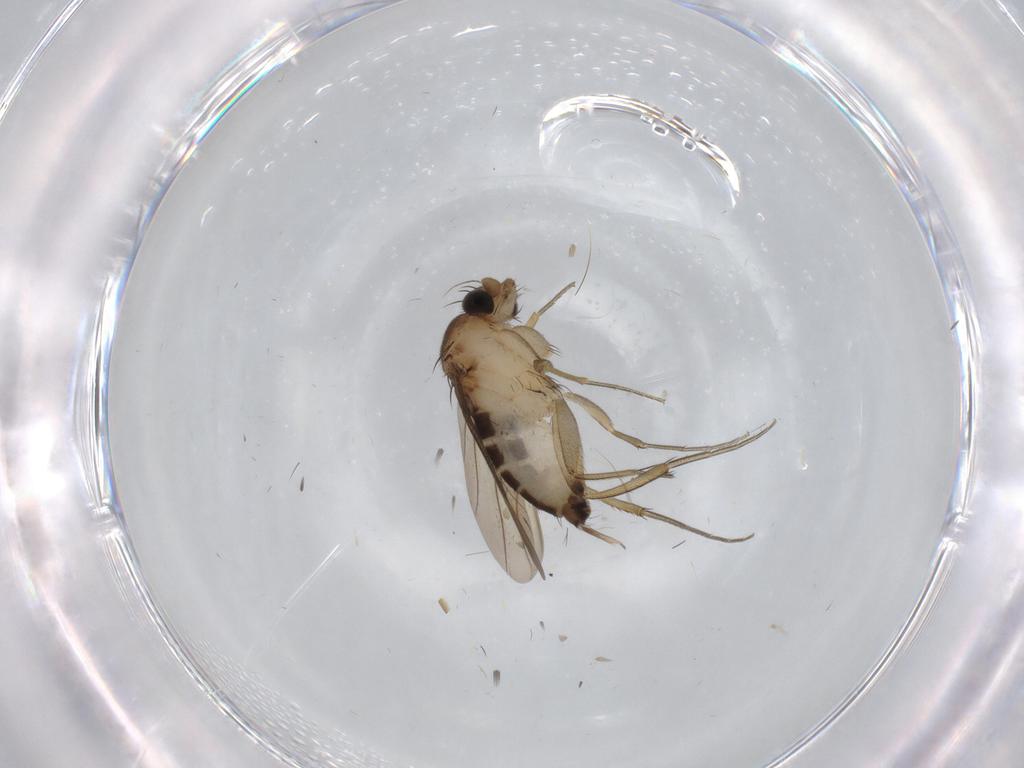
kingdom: Animalia
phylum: Arthropoda
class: Insecta
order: Diptera
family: Phoridae
